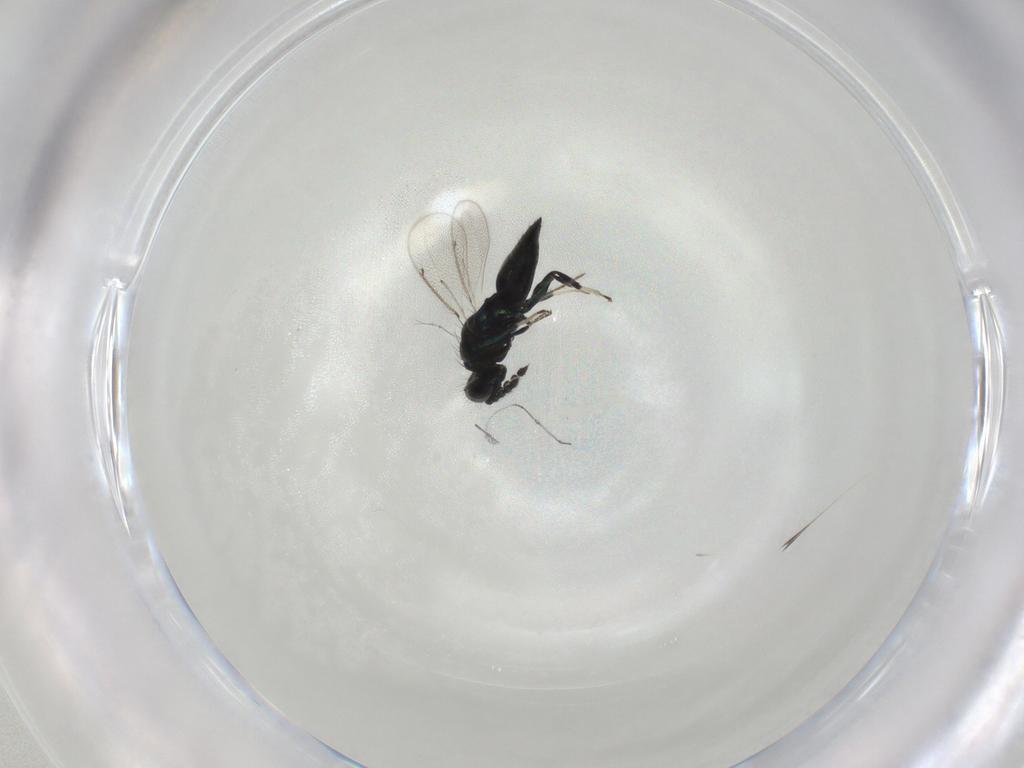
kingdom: Animalia
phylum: Arthropoda
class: Insecta
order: Hymenoptera
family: Eulophidae
